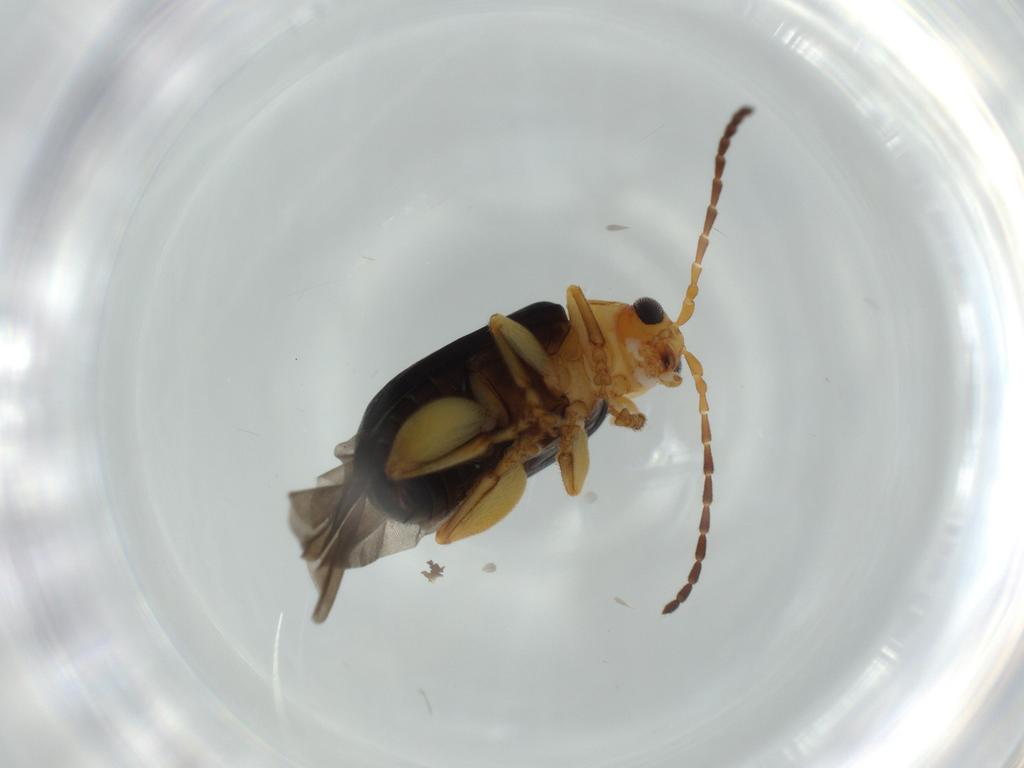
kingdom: Animalia
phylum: Arthropoda
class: Insecta
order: Coleoptera
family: Chrysomelidae
